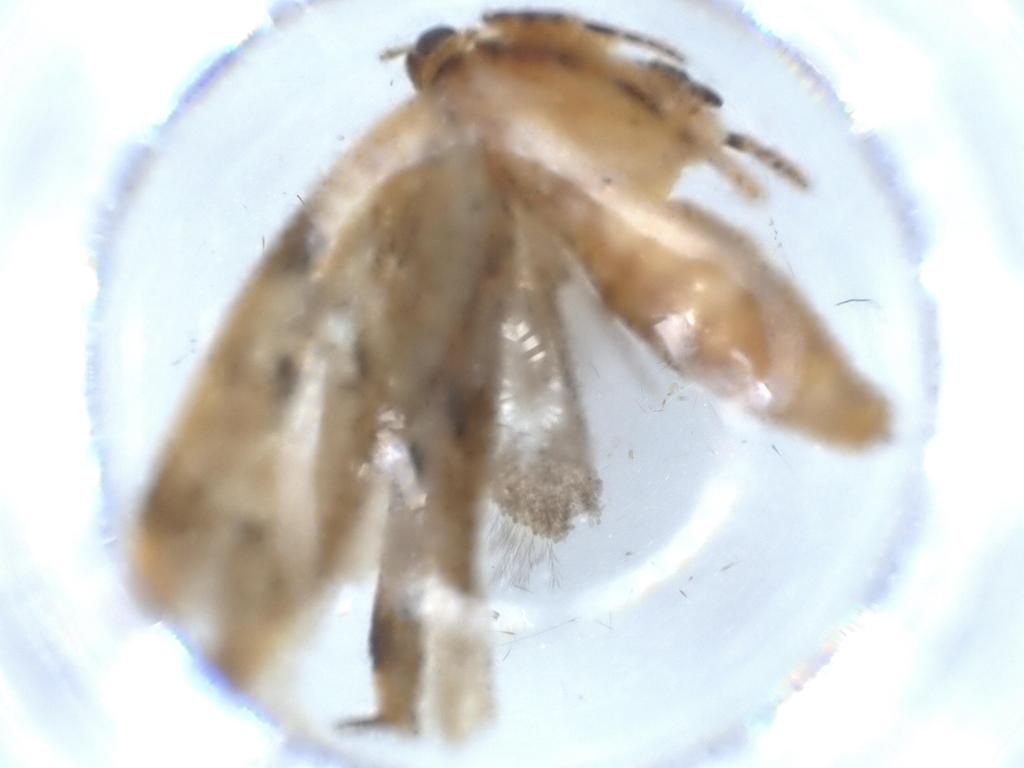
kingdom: Animalia
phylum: Arthropoda
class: Insecta
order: Lepidoptera
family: Gelechiidae
